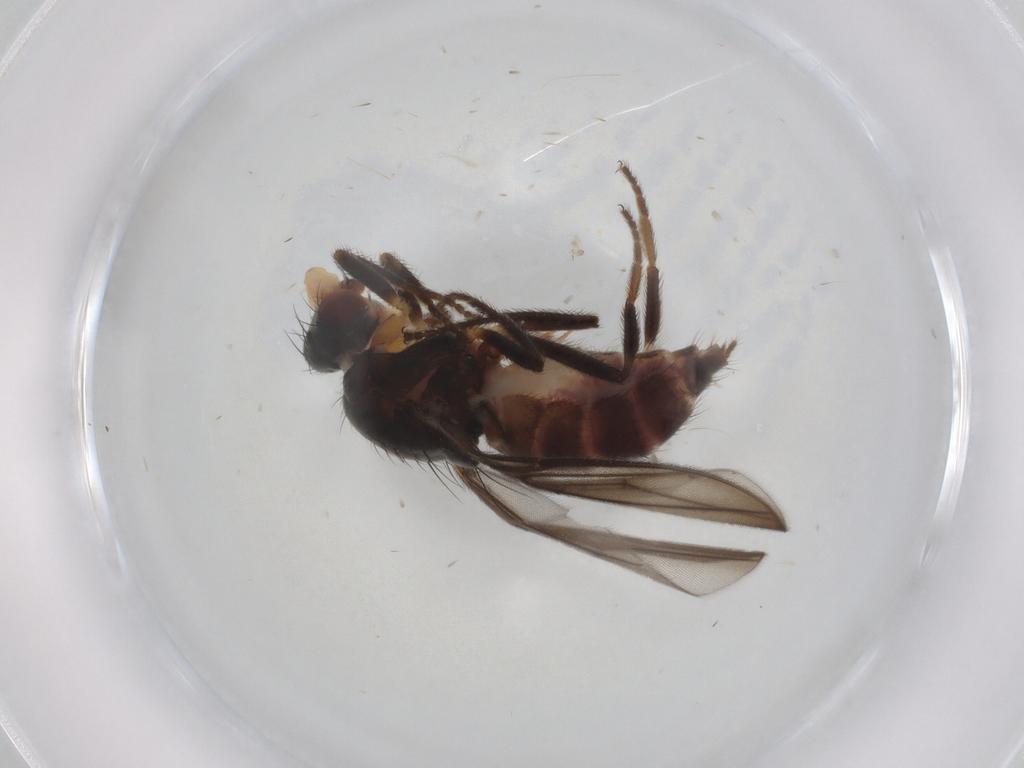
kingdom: Animalia
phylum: Arthropoda
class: Insecta
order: Diptera
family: Chloropidae
